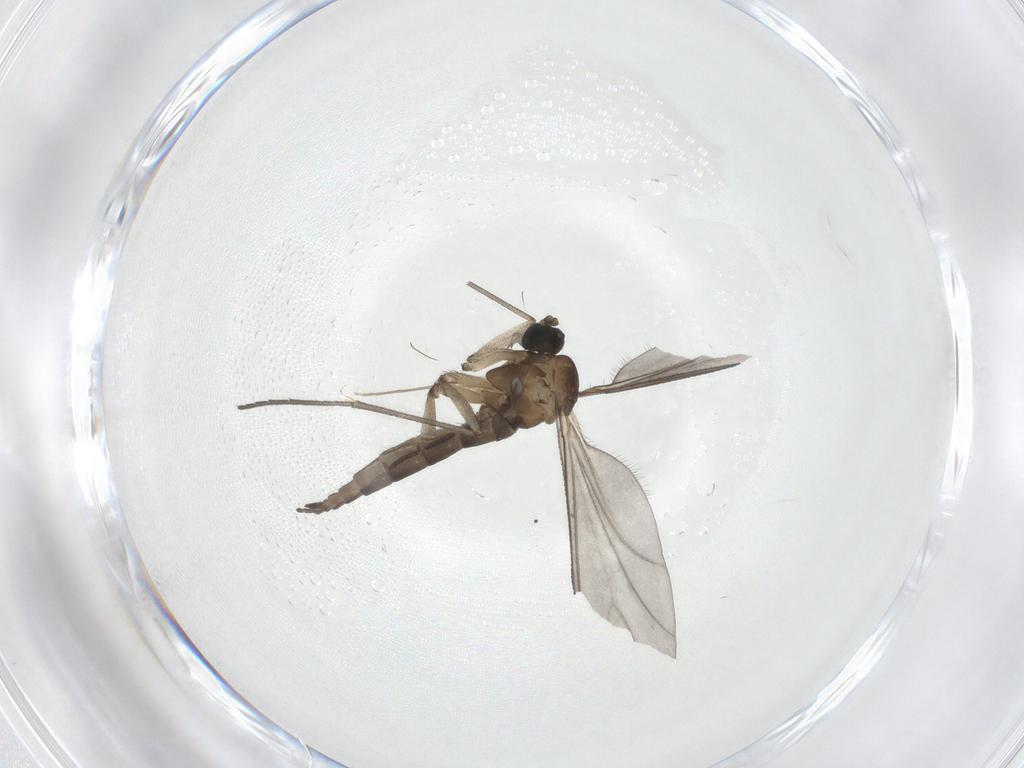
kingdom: Animalia
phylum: Arthropoda
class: Insecta
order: Diptera
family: Sciaridae
